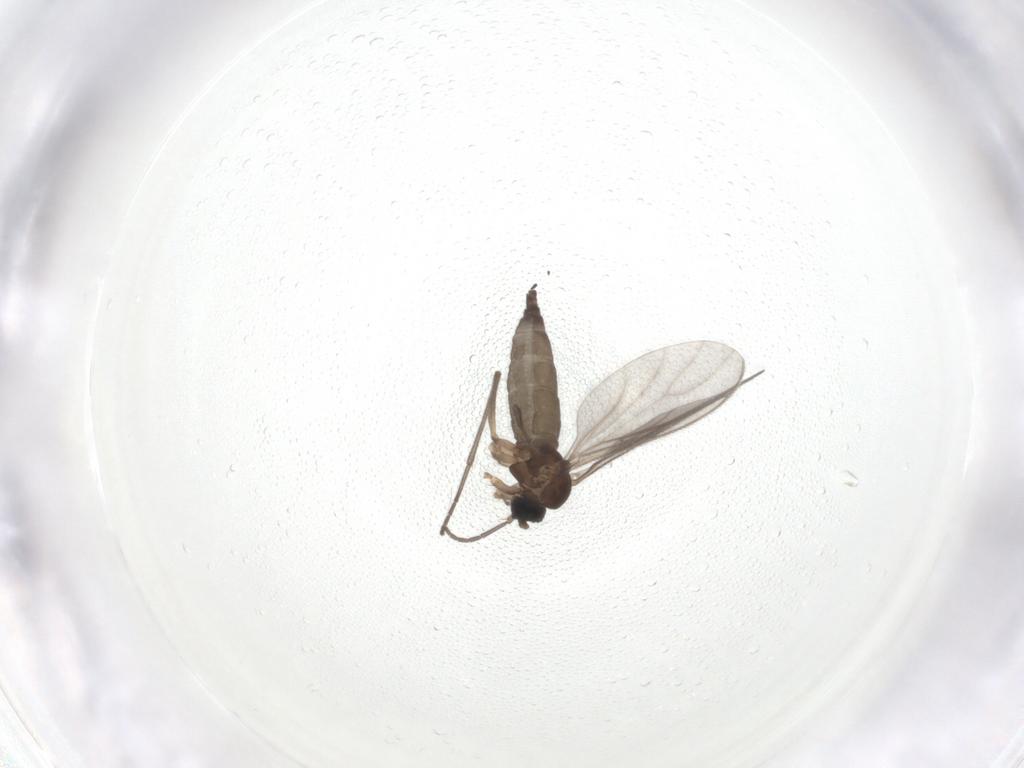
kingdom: Animalia
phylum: Arthropoda
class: Insecta
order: Diptera
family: Sciaridae
